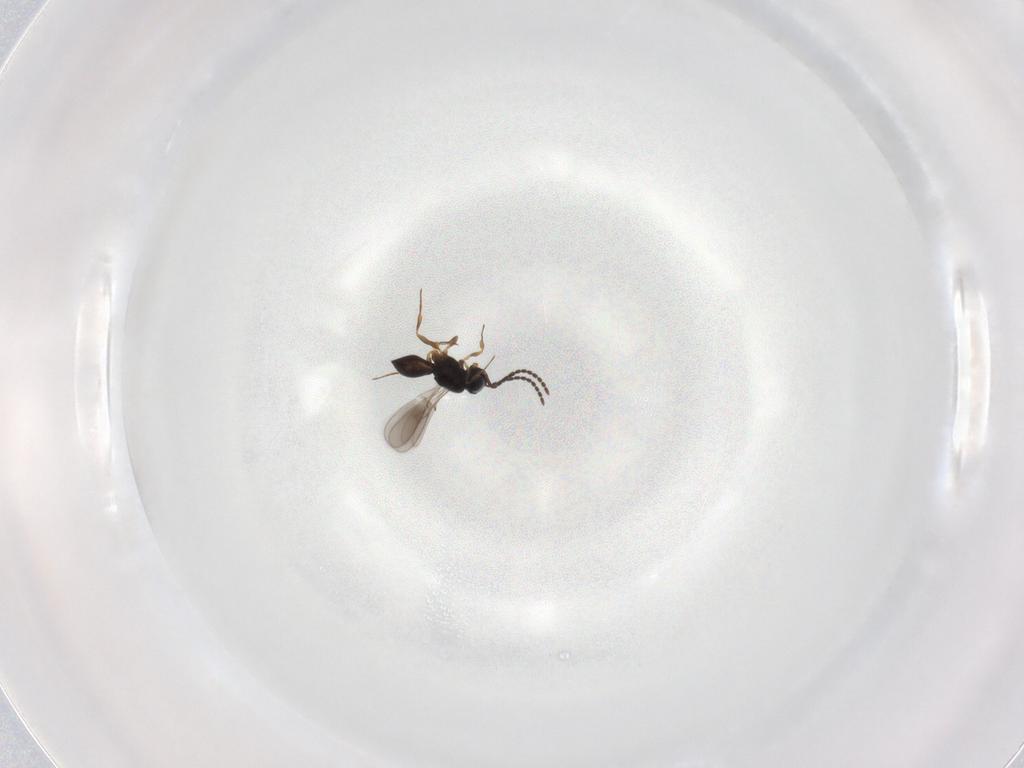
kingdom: Animalia
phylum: Arthropoda
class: Insecta
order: Hymenoptera
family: Scelionidae
